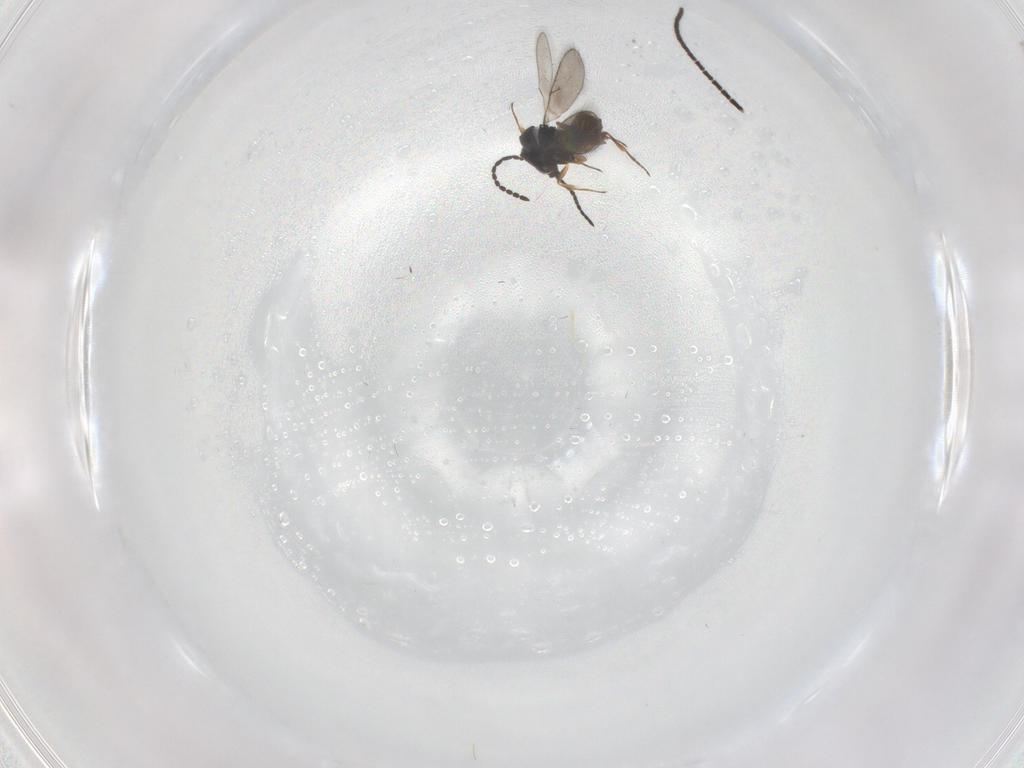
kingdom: Animalia
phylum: Arthropoda
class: Insecta
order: Hymenoptera
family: Scelionidae
